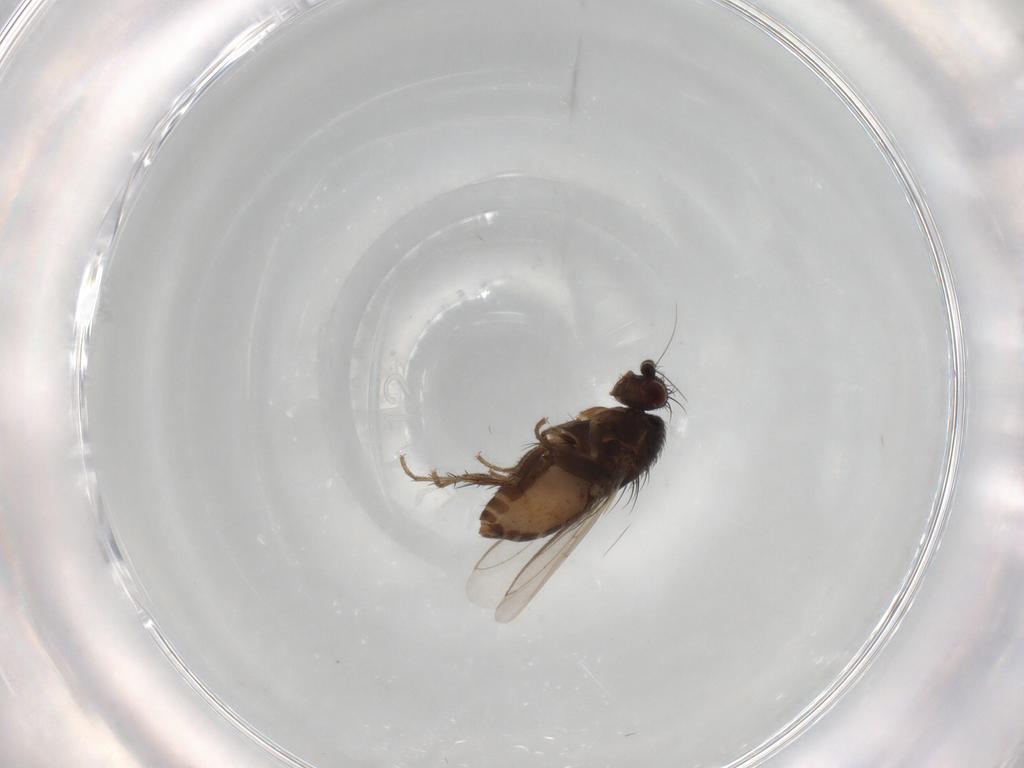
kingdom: Animalia
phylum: Arthropoda
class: Insecta
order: Diptera
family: Sphaeroceridae
